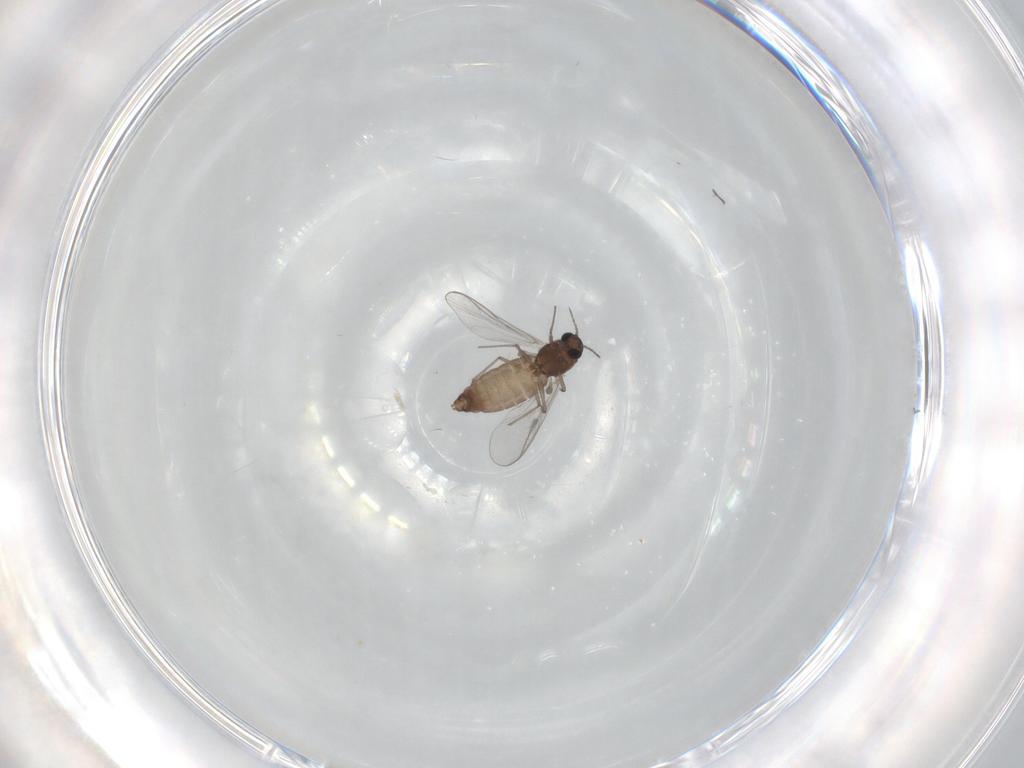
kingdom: Animalia
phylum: Arthropoda
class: Insecta
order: Diptera
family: Chironomidae
